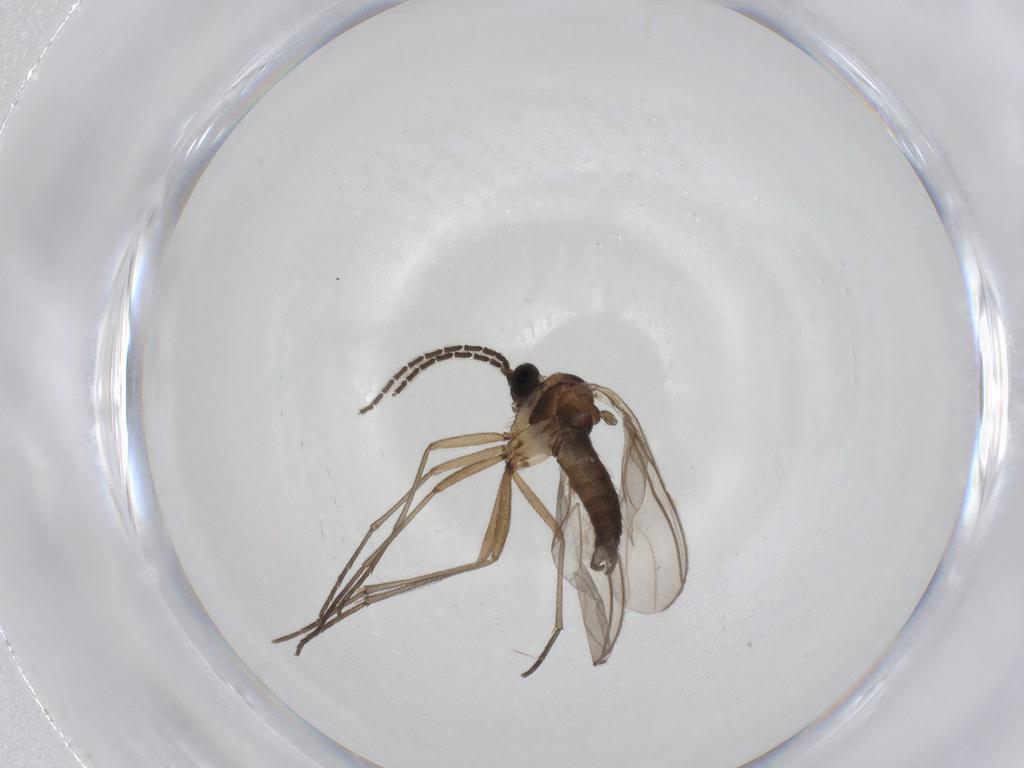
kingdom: Animalia
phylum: Arthropoda
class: Insecta
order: Diptera
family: Sciaridae
